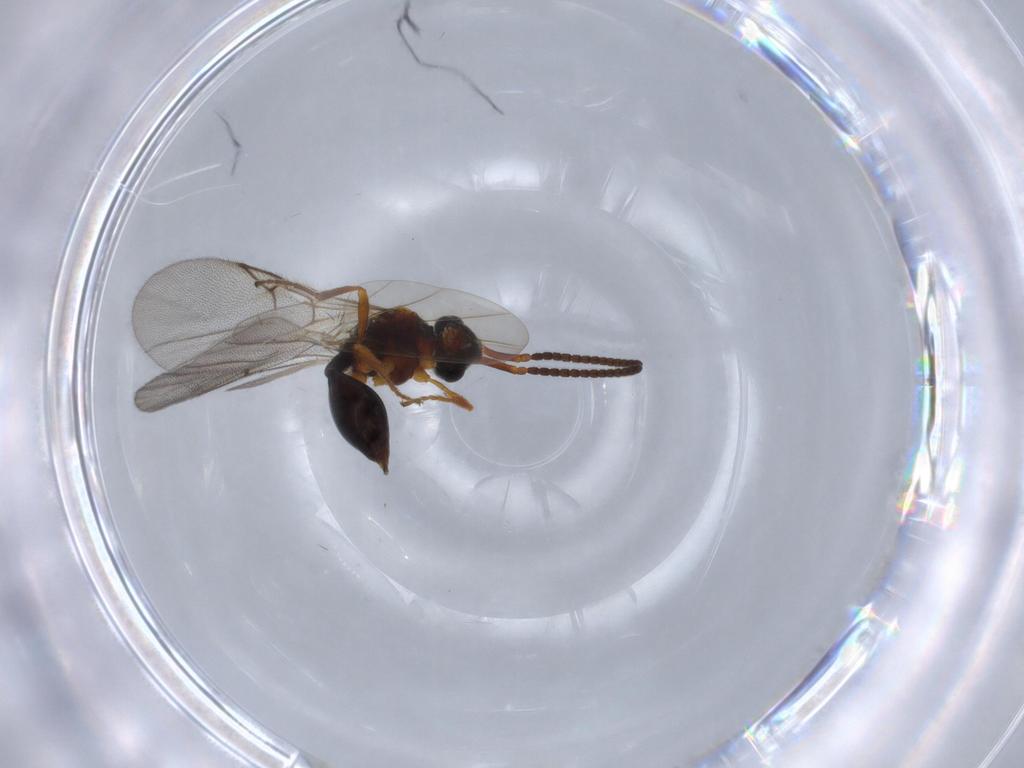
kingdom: Animalia
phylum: Arthropoda
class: Insecta
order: Hymenoptera
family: Diapriidae
